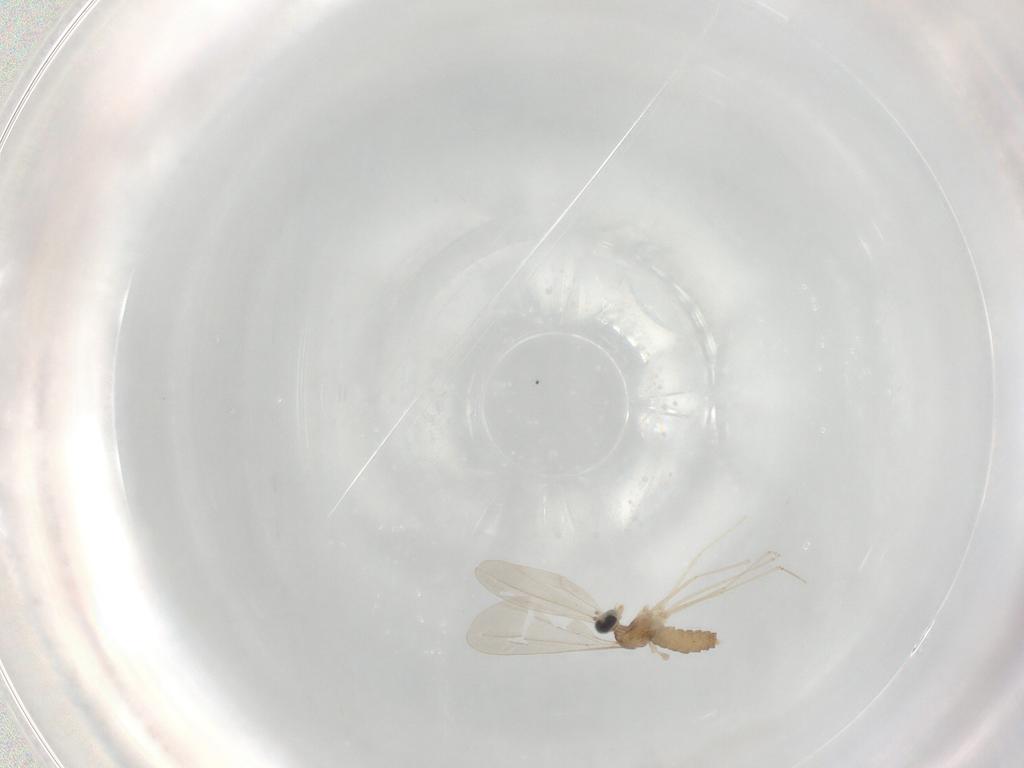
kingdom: Animalia
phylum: Arthropoda
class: Insecta
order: Diptera
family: Cecidomyiidae
